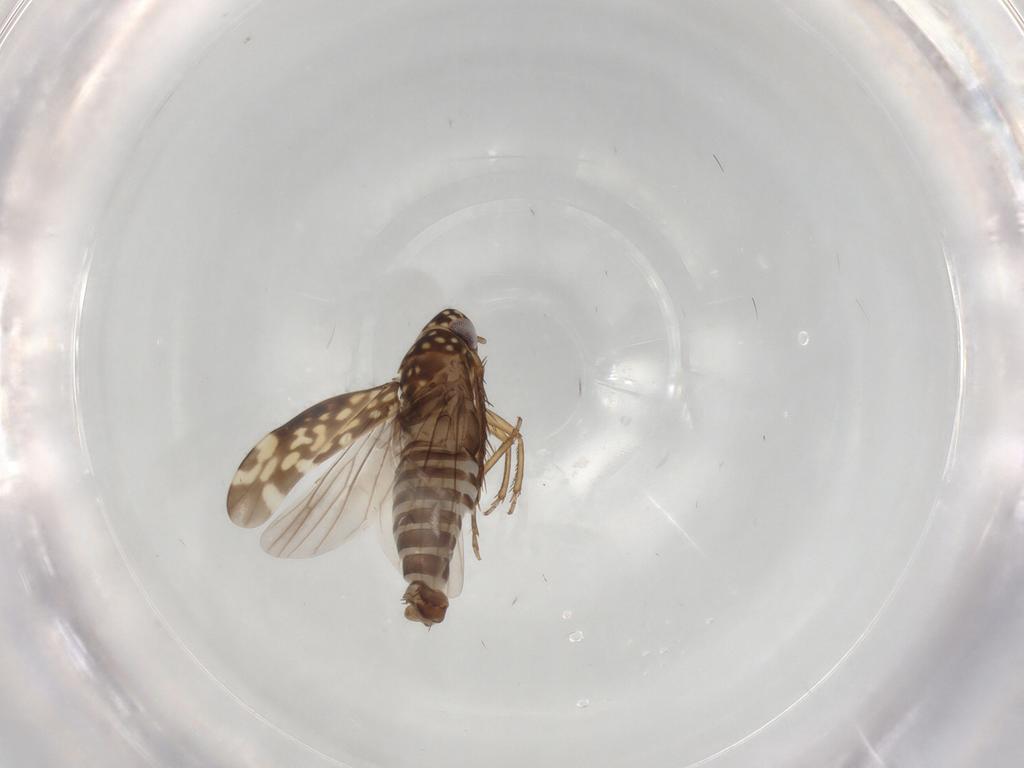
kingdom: Animalia
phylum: Arthropoda
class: Insecta
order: Hemiptera
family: Cicadellidae
